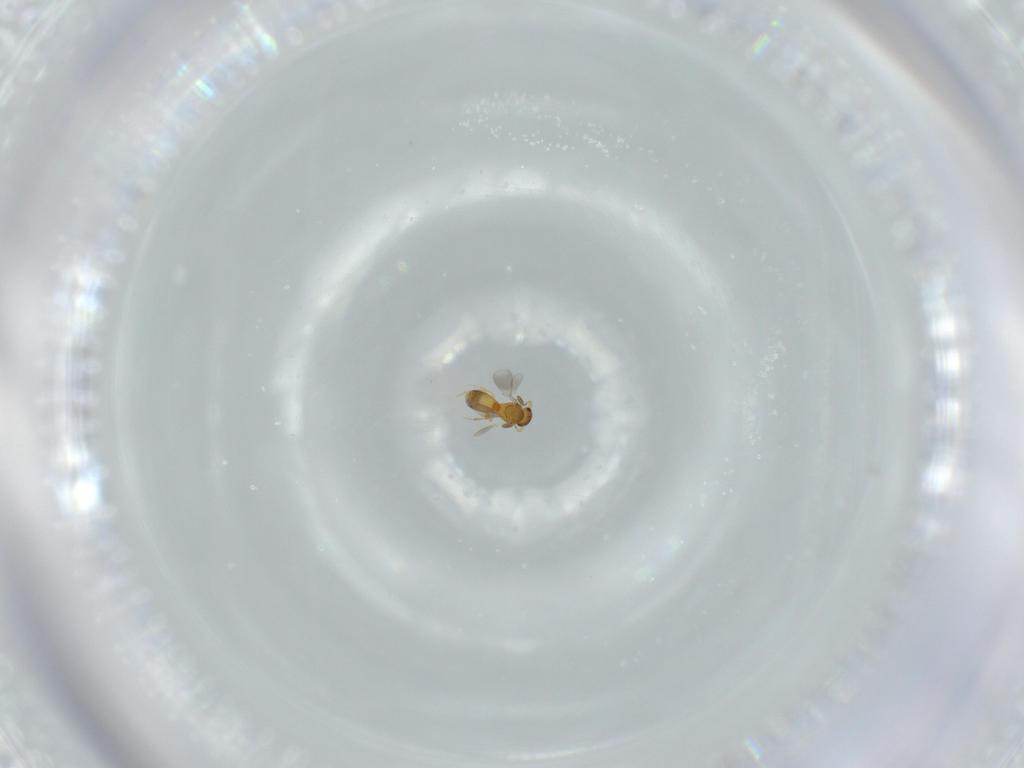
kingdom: Animalia
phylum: Arthropoda
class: Insecta
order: Hymenoptera
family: Platygastridae
